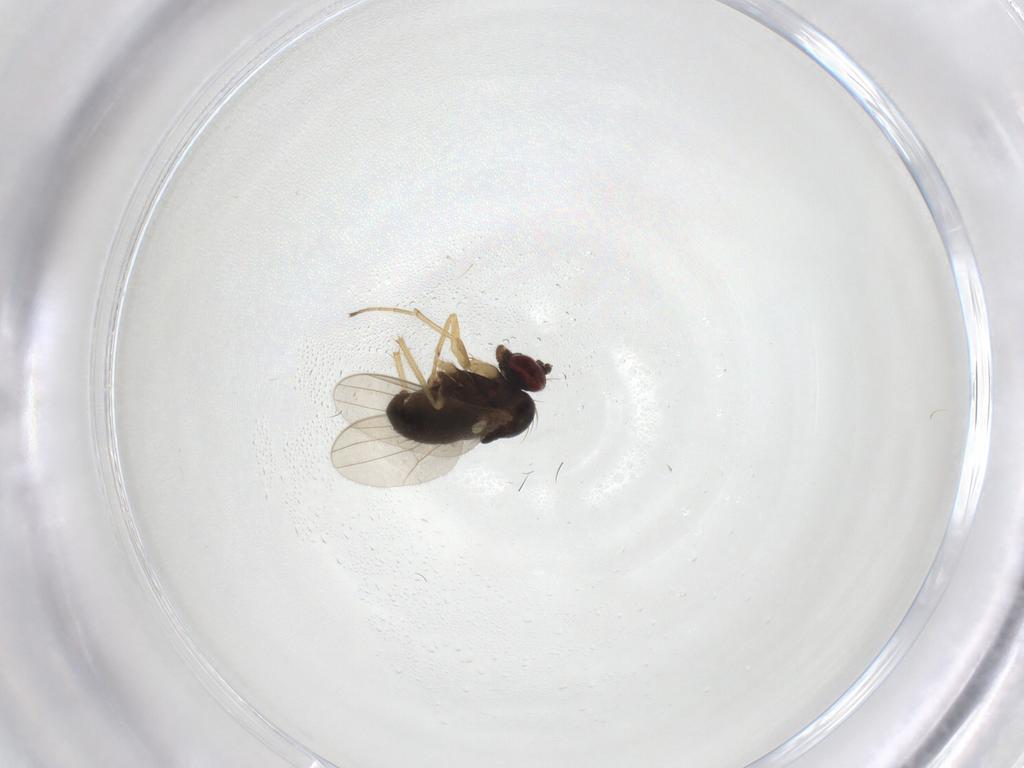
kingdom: Animalia
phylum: Arthropoda
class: Insecta
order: Diptera
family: Dolichopodidae
